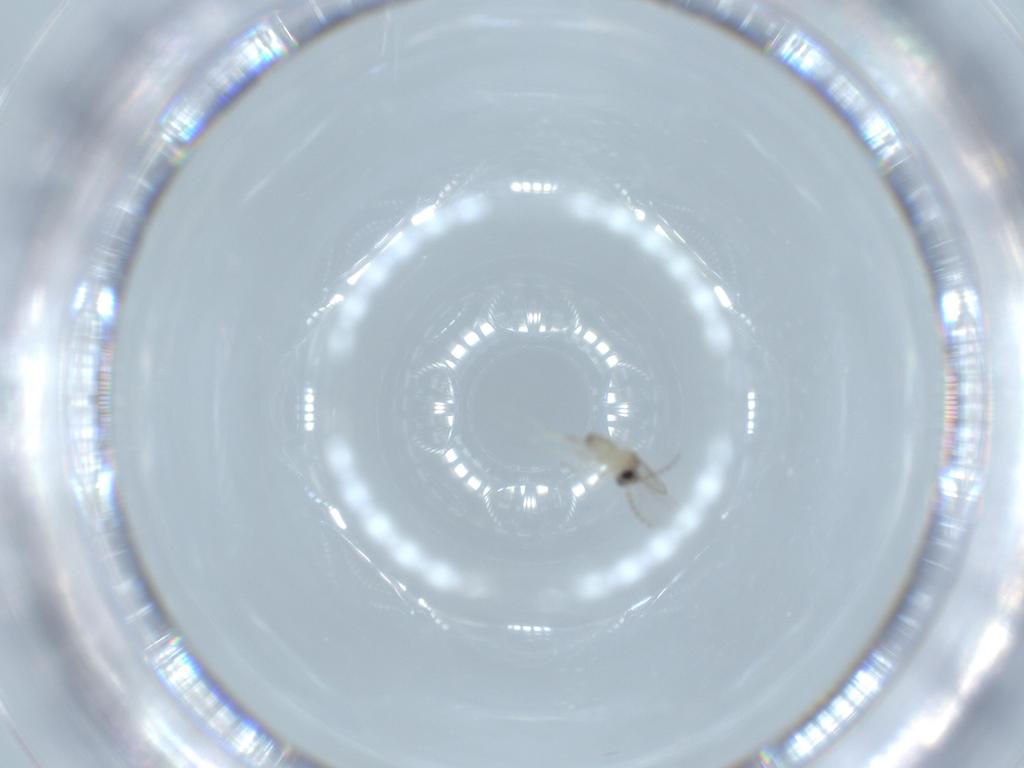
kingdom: Animalia
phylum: Arthropoda
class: Insecta
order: Diptera
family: Cecidomyiidae
